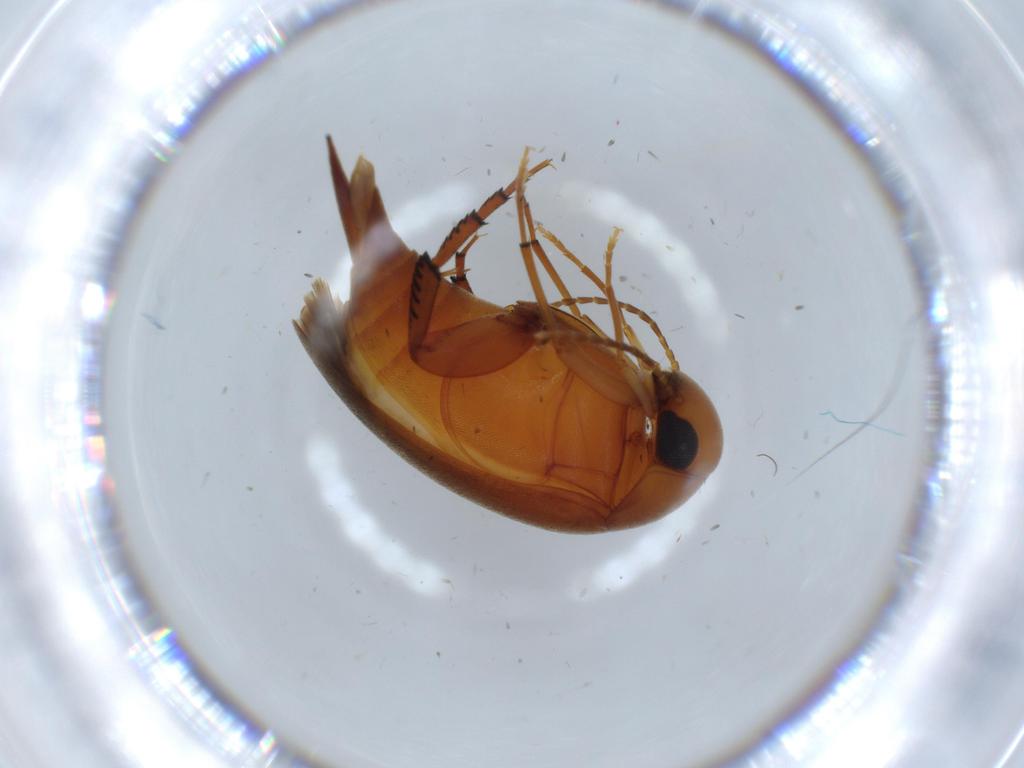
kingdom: Animalia
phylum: Arthropoda
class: Insecta
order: Coleoptera
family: Mordellidae
